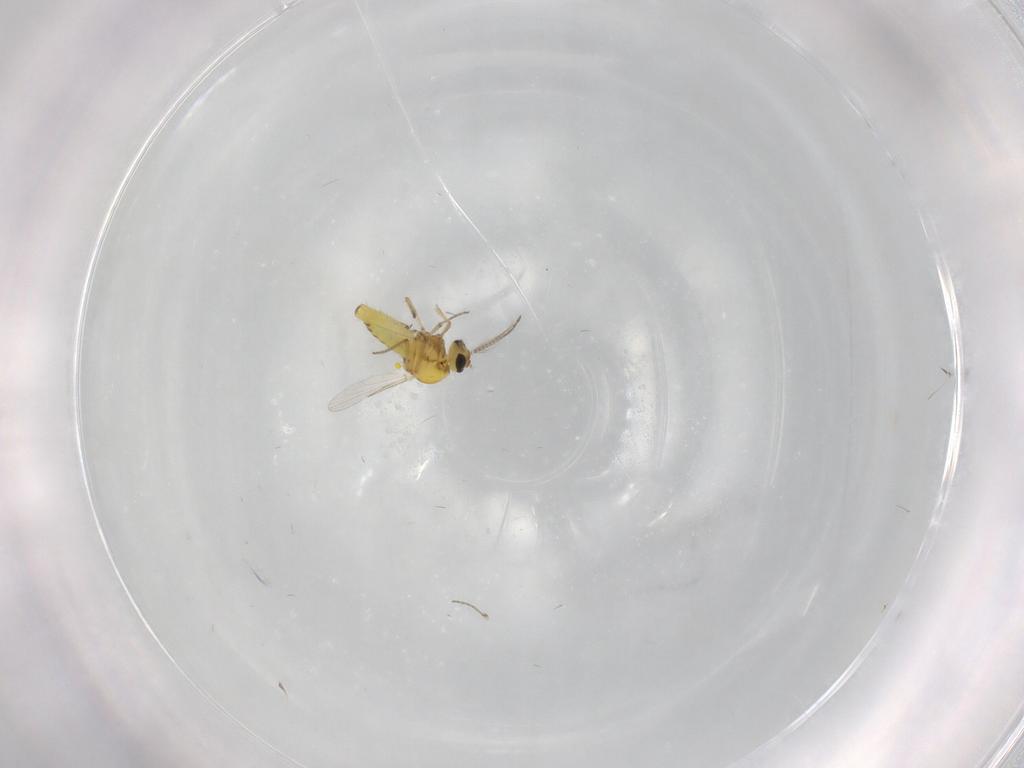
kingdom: Animalia
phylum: Arthropoda
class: Insecta
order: Diptera
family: Ceratopogonidae
